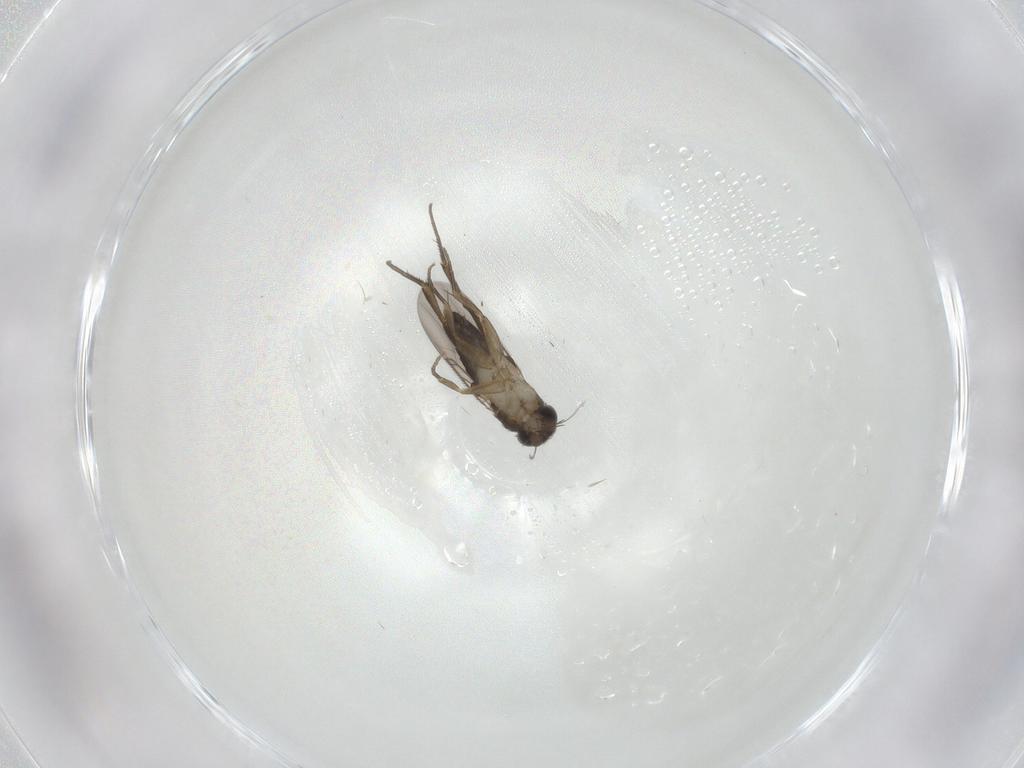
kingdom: Animalia
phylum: Arthropoda
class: Insecta
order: Diptera
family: Phoridae
